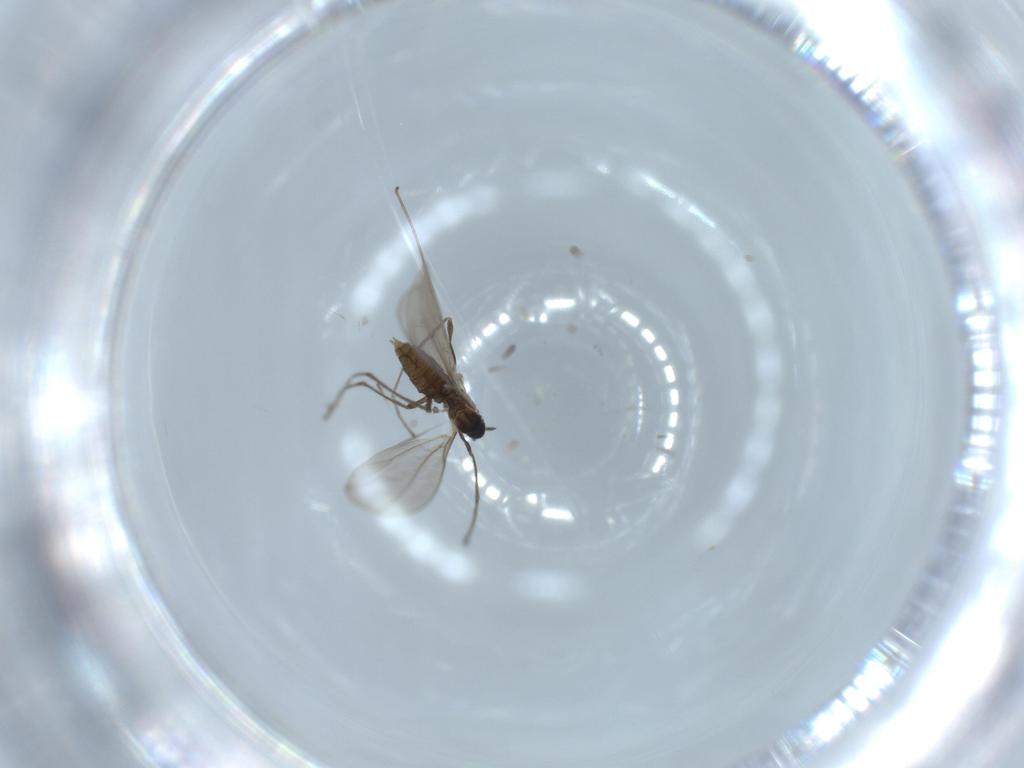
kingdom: Animalia
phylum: Arthropoda
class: Insecta
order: Diptera
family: Cecidomyiidae
